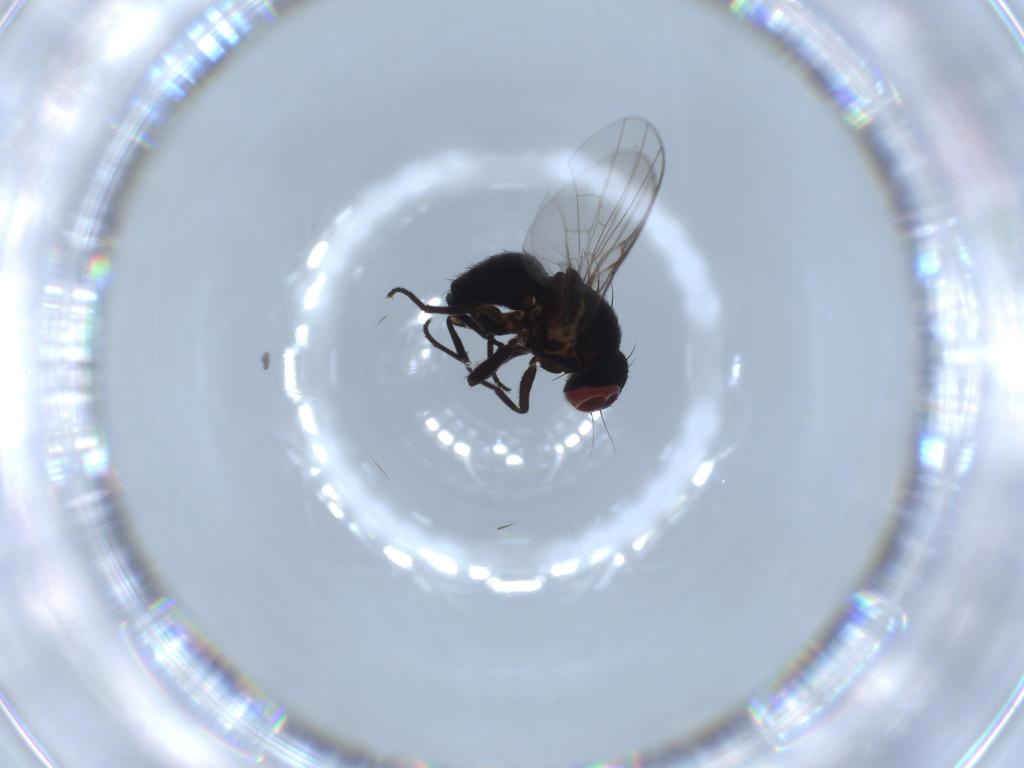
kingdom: Animalia
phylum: Arthropoda
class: Insecta
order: Diptera
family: Agromyzidae
